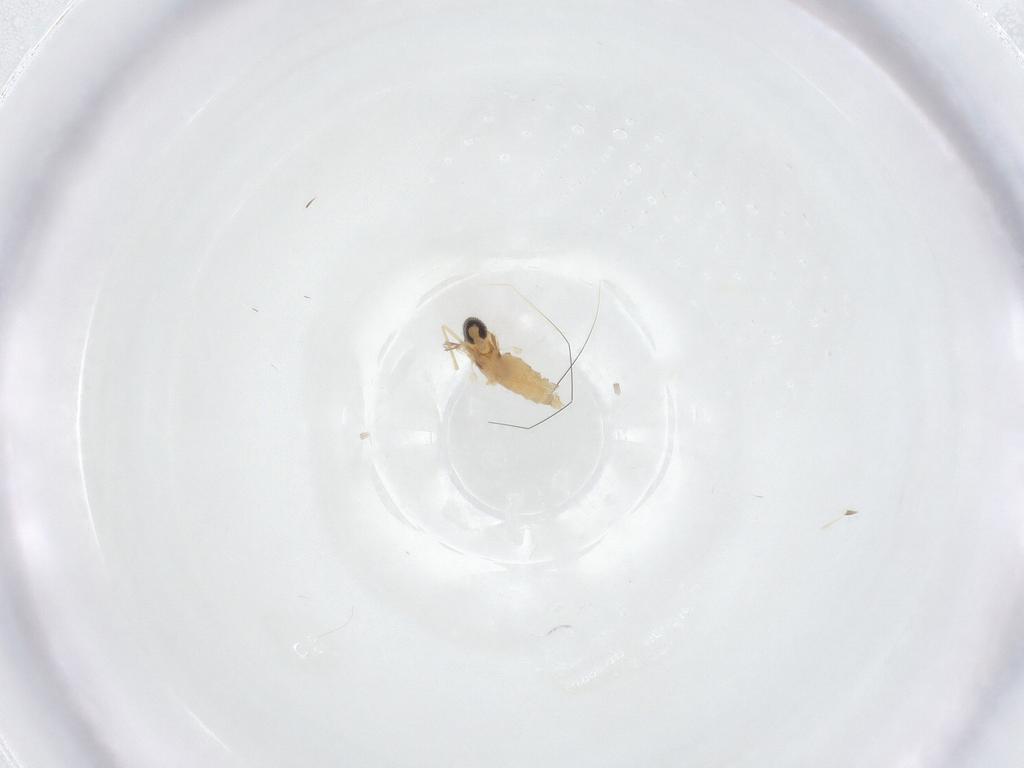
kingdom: Animalia
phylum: Arthropoda
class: Insecta
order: Diptera
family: Cecidomyiidae
